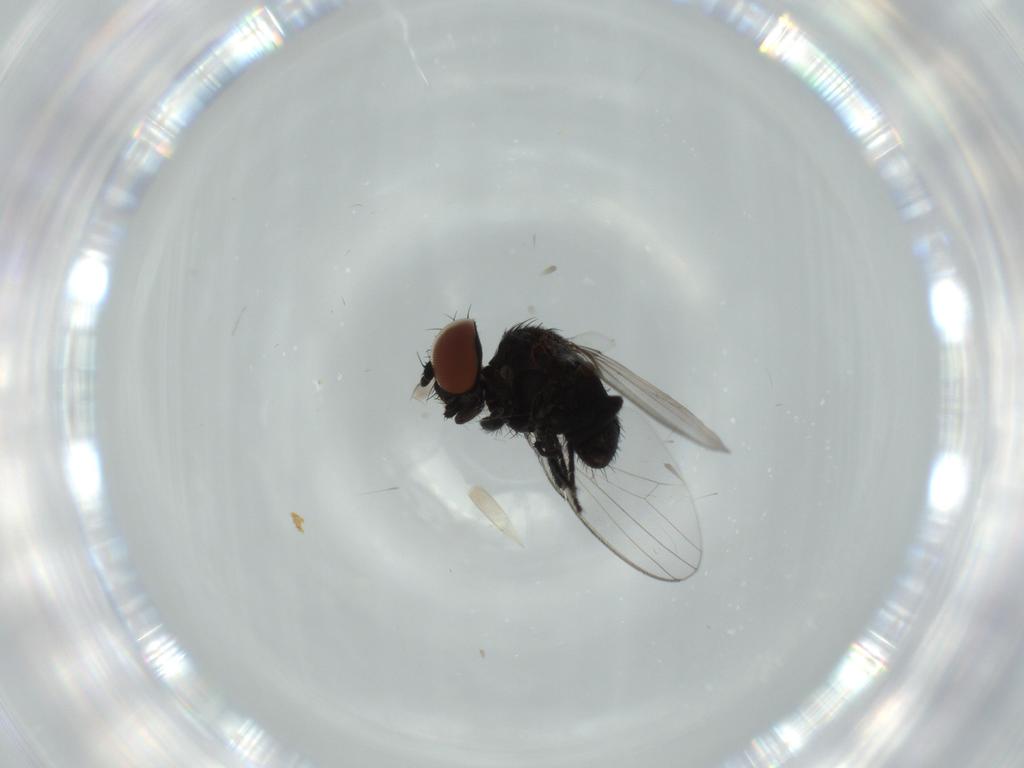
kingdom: Animalia
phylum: Arthropoda
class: Insecta
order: Diptera
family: Milichiidae
